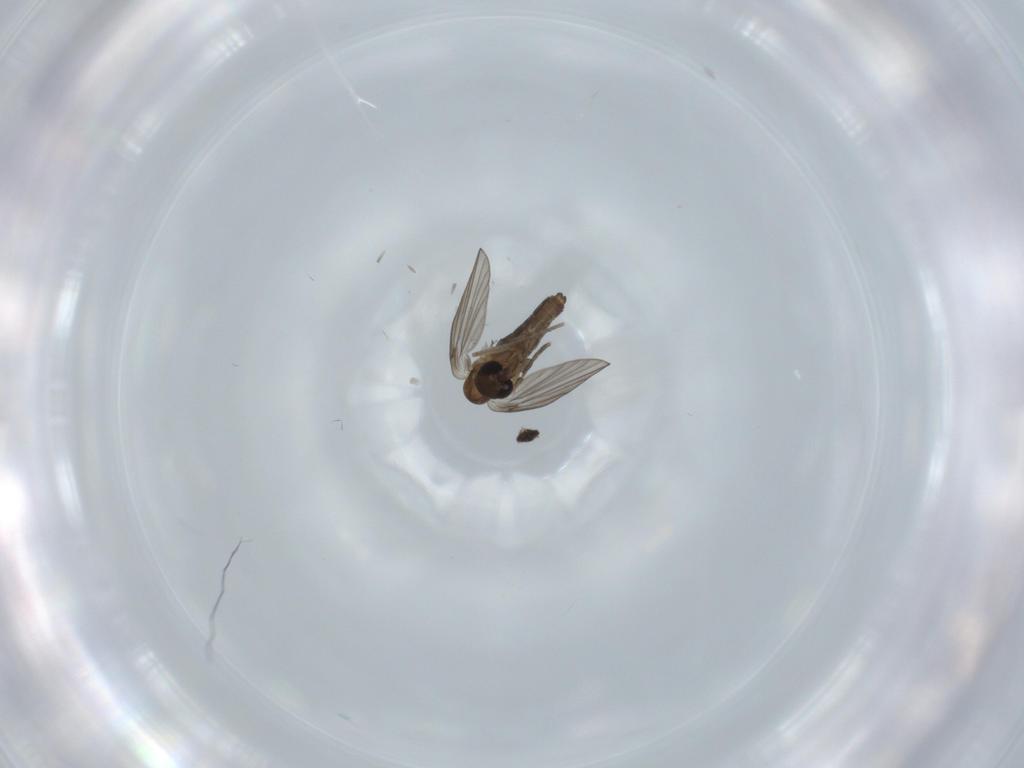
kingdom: Animalia
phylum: Arthropoda
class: Insecta
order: Diptera
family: Psychodidae
